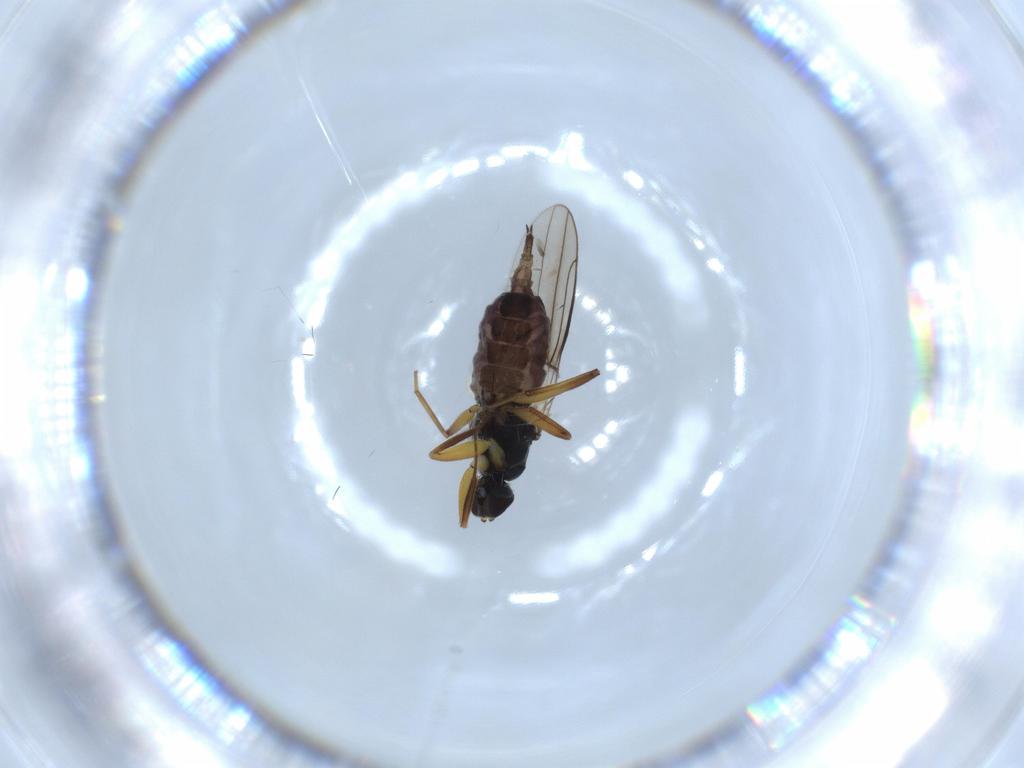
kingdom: Animalia
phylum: Arthropoda
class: Insecta
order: Diptera
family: Hybotidae
